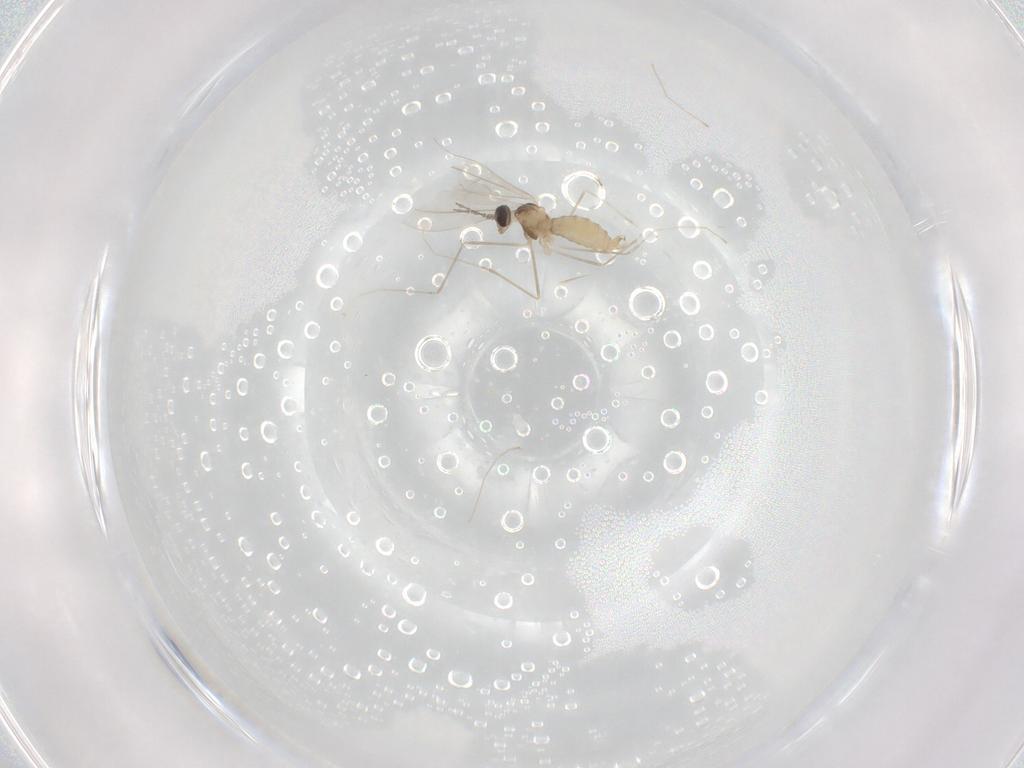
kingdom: Animalia
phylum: Arthropoda
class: Insecta
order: Diptera
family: Cecidomyiidae
